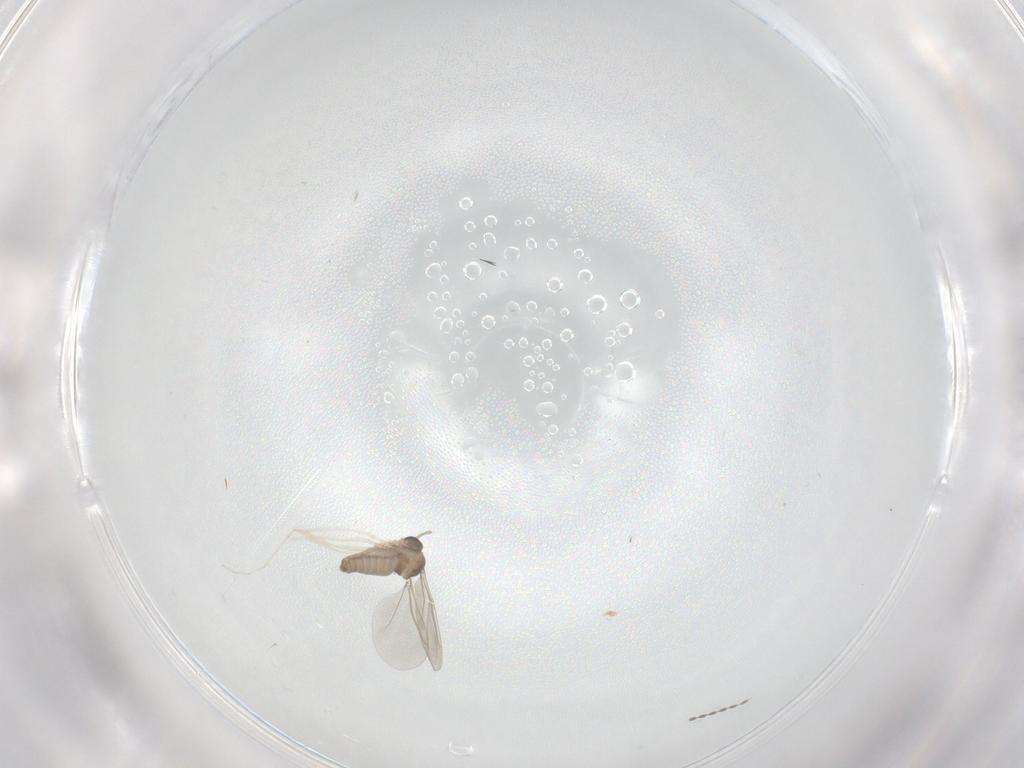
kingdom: Animalia
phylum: Arthropoda
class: Insecta
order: Diptera
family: Cecidomyiidae
